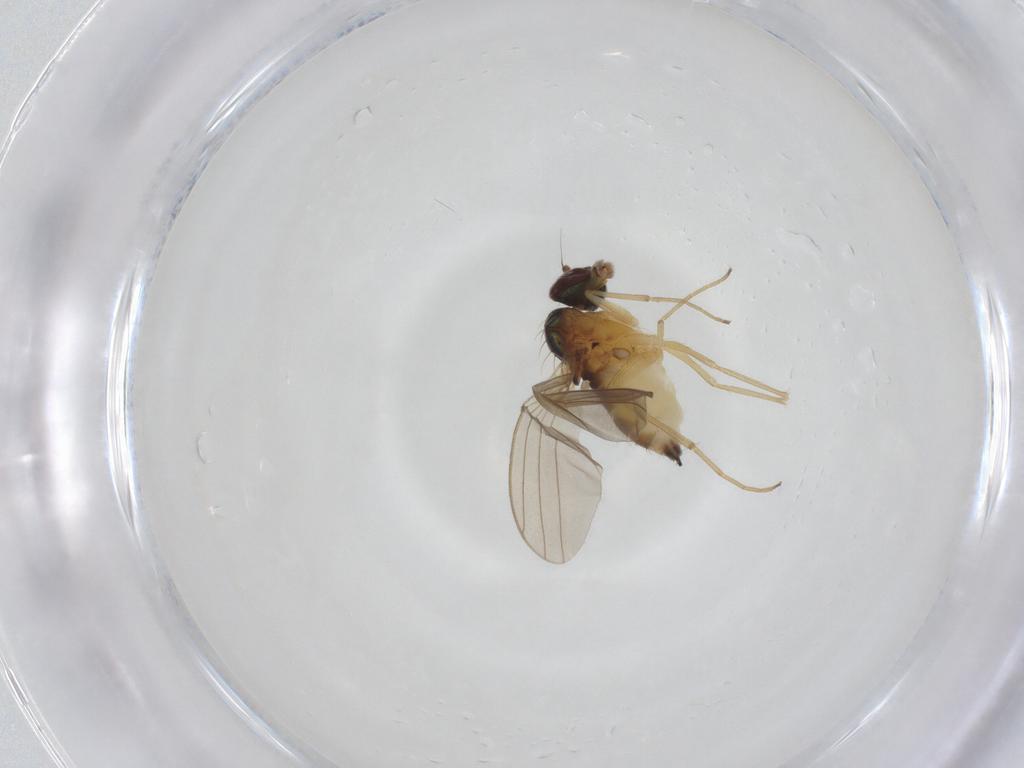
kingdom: Animalia
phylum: Arthropoda
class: Insecta
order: Diptera
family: Dolichopodidae
